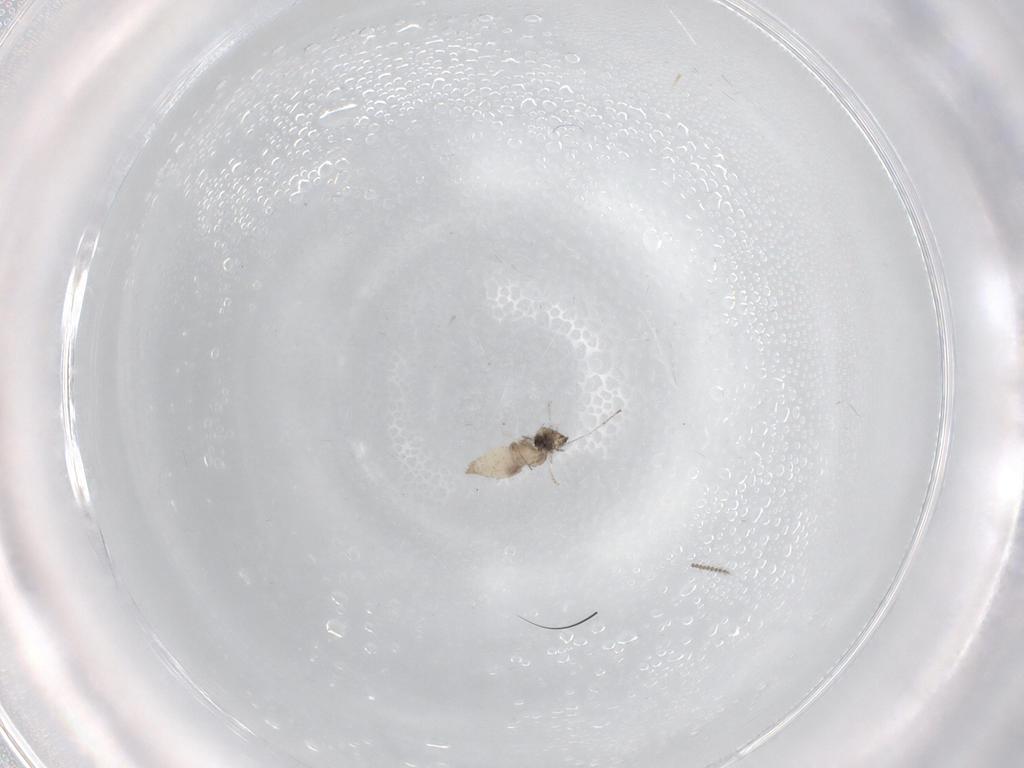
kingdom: Animalia
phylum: Arthropoda
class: Insecta
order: Diptera
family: Cecidomyiidae
